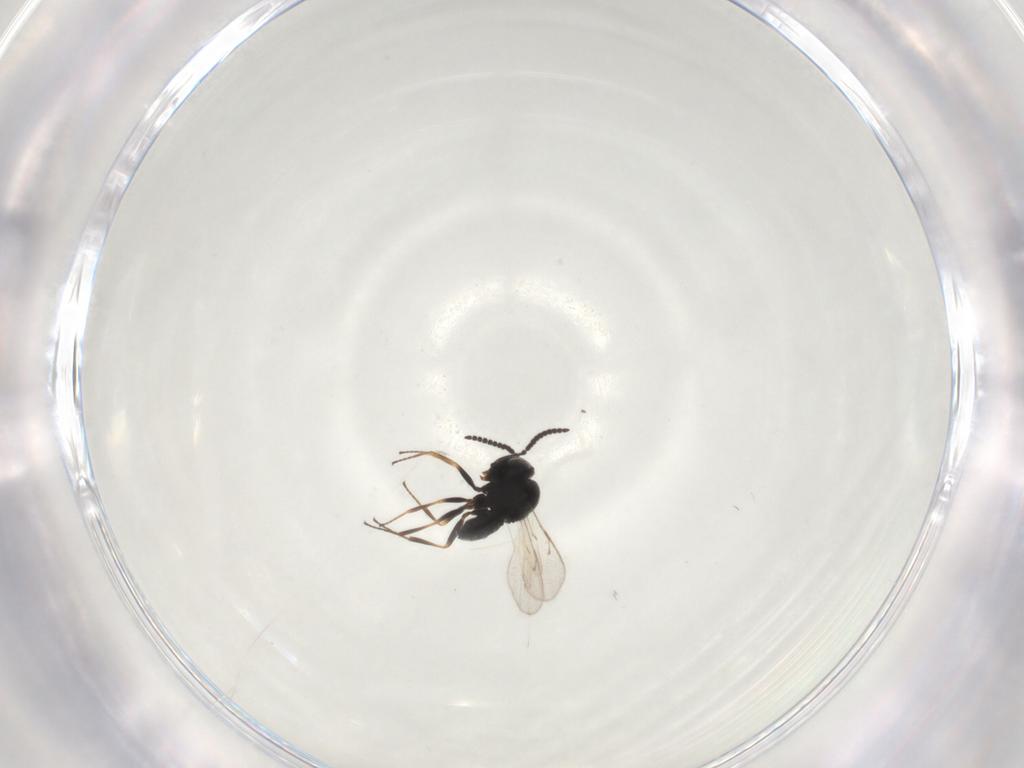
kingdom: Animalia
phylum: Arthropoda
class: Insecta
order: Hymenoptera
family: Scelionidae
